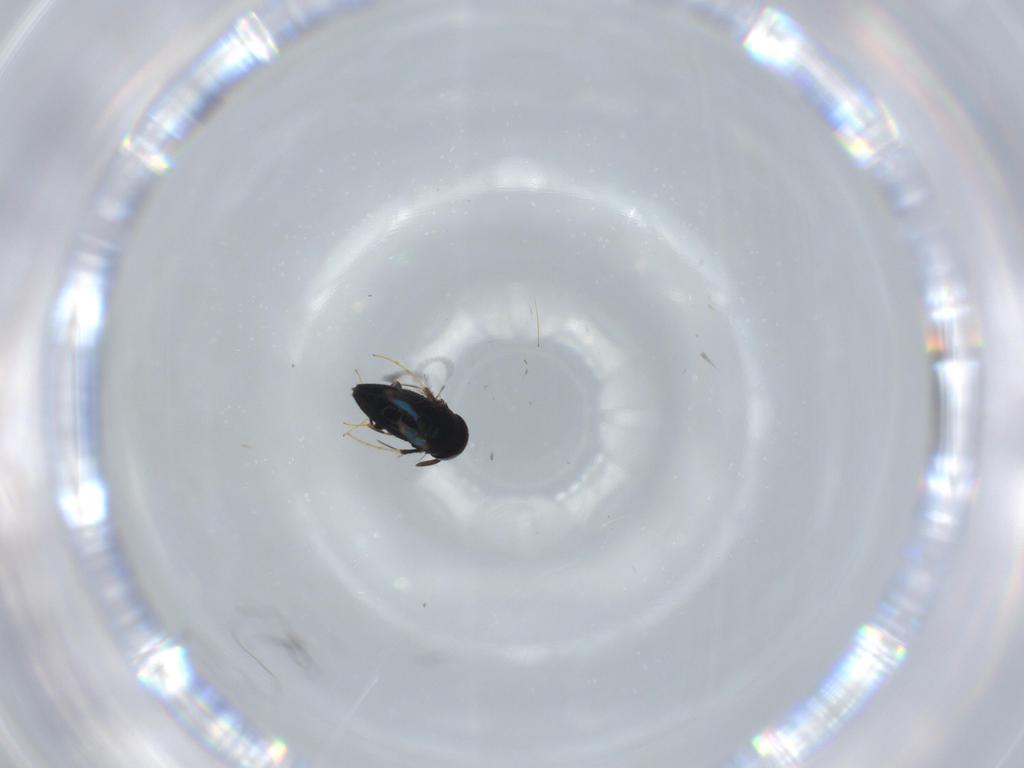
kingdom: Animalia
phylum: Arthropoda
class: Insecta
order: Hymenoptera
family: Signiphoridae
